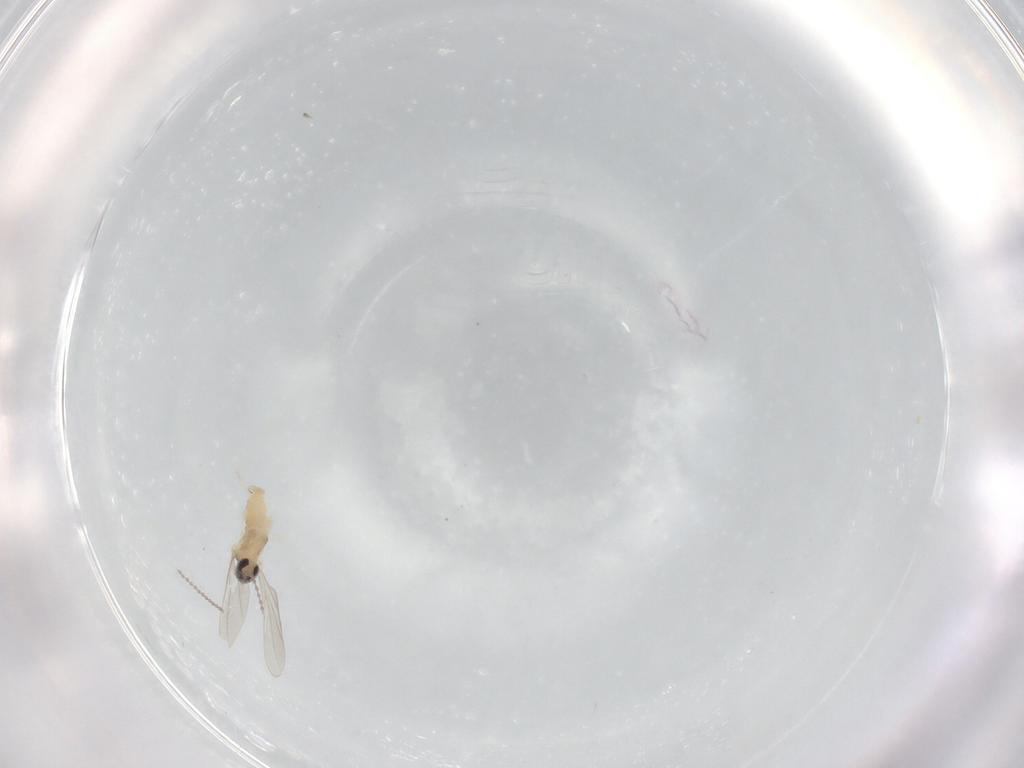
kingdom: Animalia
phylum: Arthropoda
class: Insecta
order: Diptera
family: Cecidomyiidae
